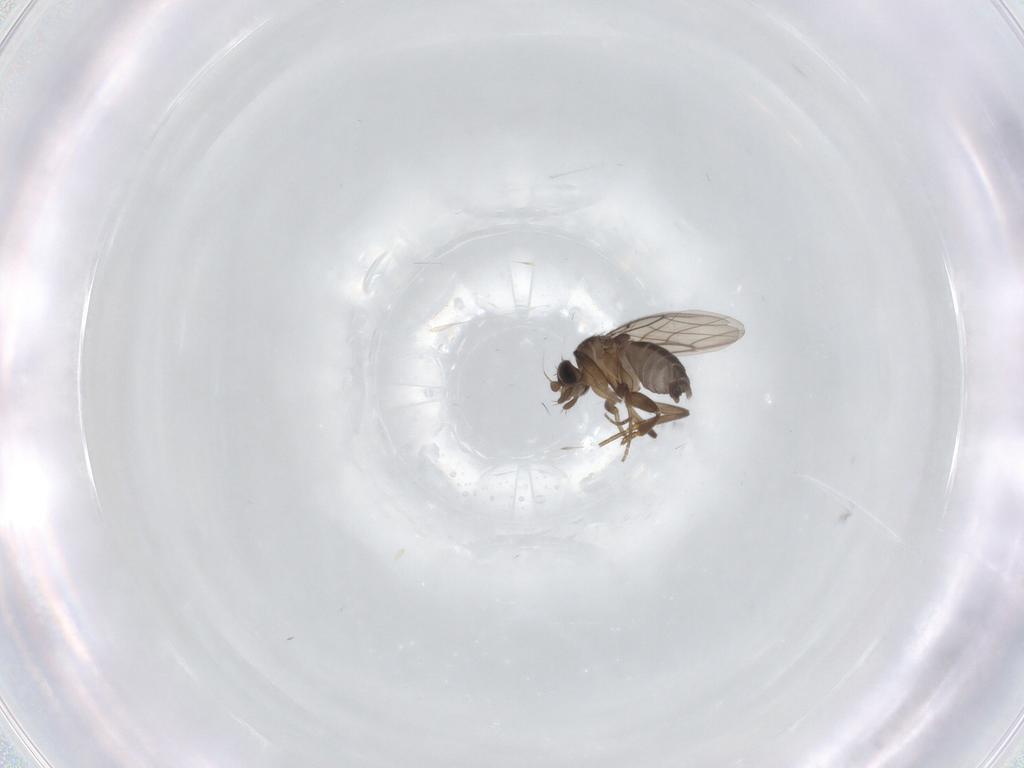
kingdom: Animalia
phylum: Arthropoda
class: Insecta
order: Diptera
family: Phoridae
